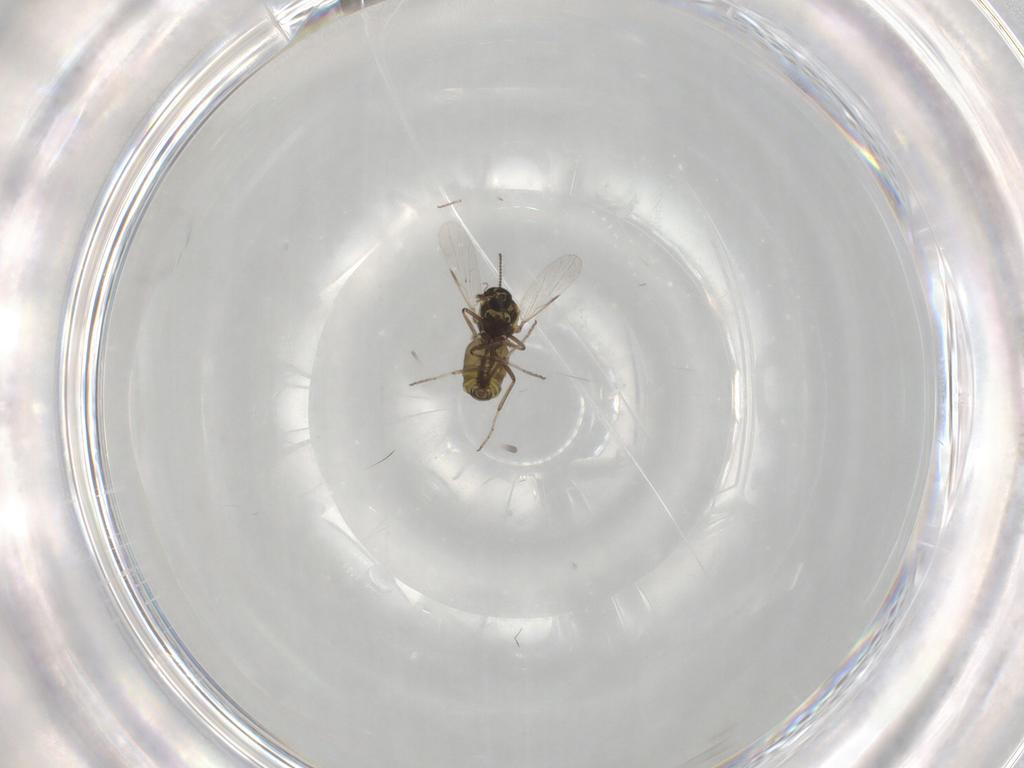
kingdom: Animalia
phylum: Arthropoda
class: Insecta
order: Diptera
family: Ceratopogonidae
